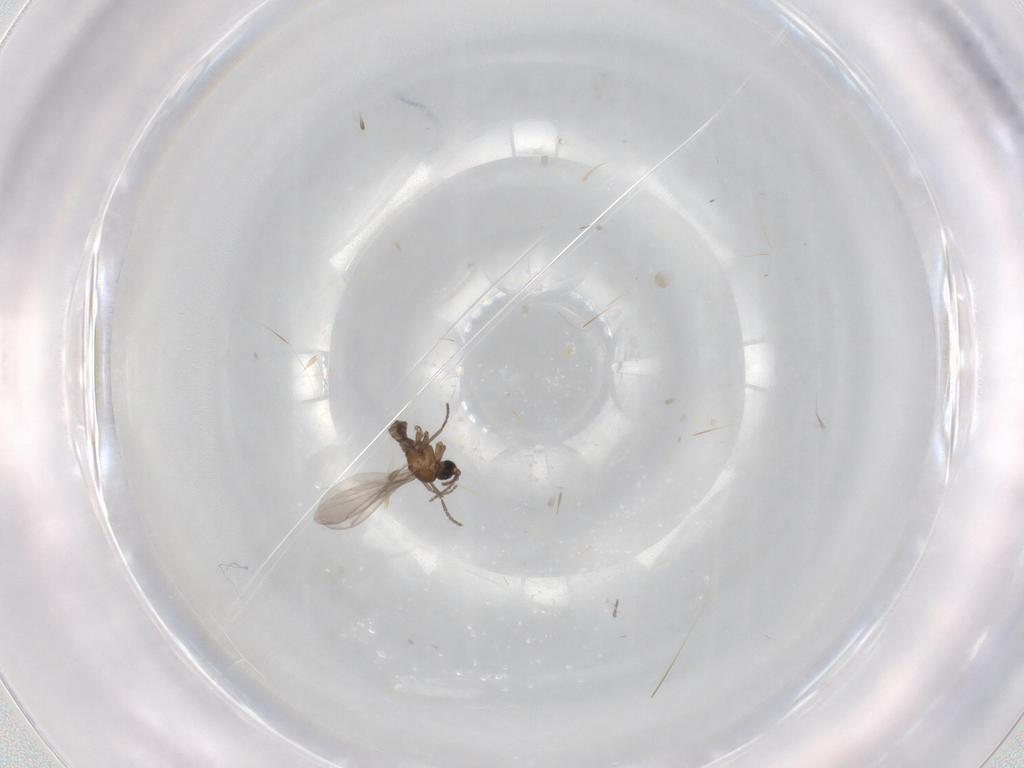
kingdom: Animalia
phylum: Arthropoda
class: Insecta
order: Diptera
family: Sciaridae
